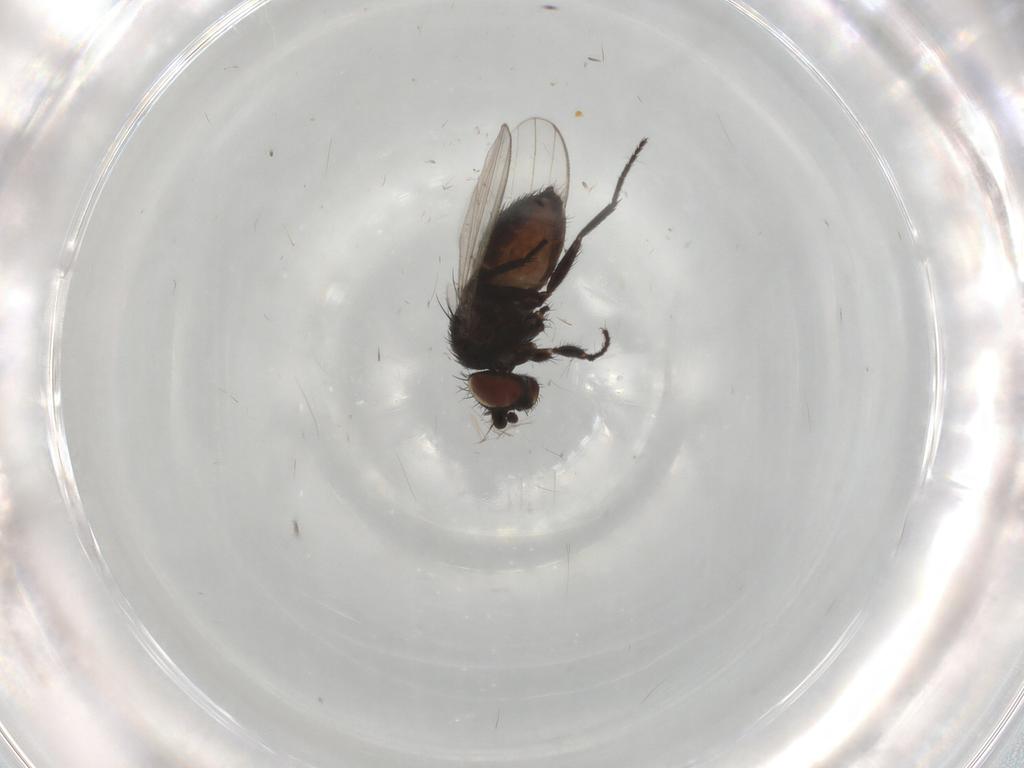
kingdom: Animalia
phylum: Arthropoda
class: Insecta
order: Diptera
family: Milichiidae
